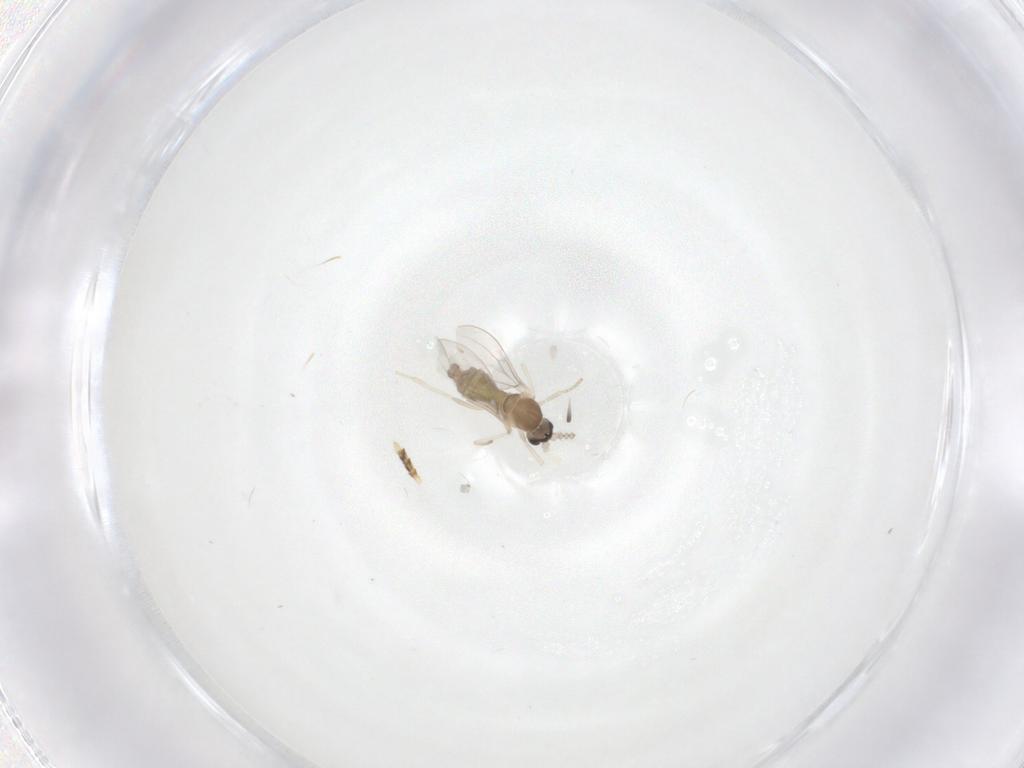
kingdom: Animalia
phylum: Arthropoda
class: Insecta
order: Diptera
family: Cecidomyiidae
